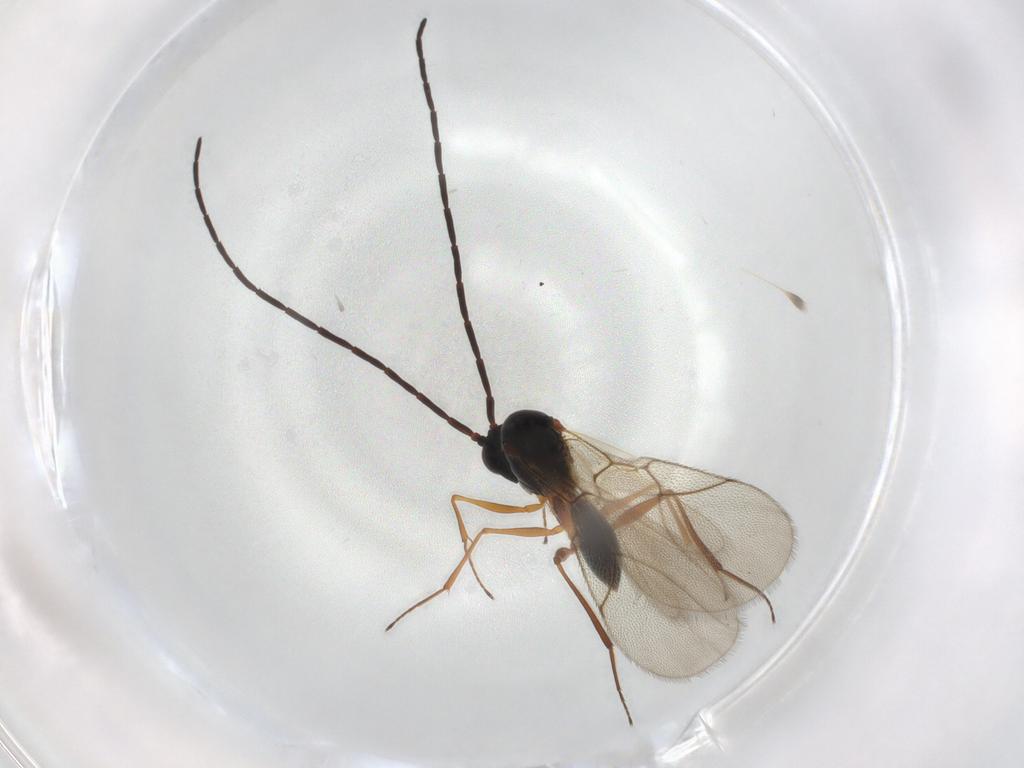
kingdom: Animalia
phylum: Arthropoda
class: Insecta
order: Hymenoptera
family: Figitidae
